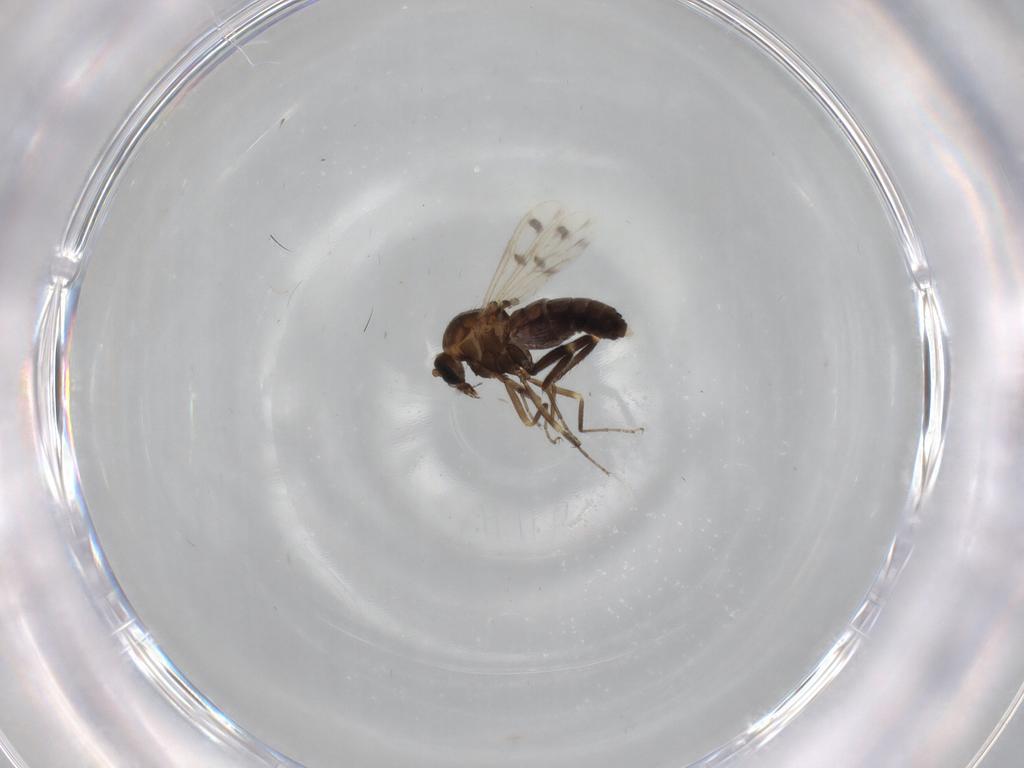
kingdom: Animalia
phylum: Arthropoda
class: Insecta
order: Diptera
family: Ceratopogonidae
